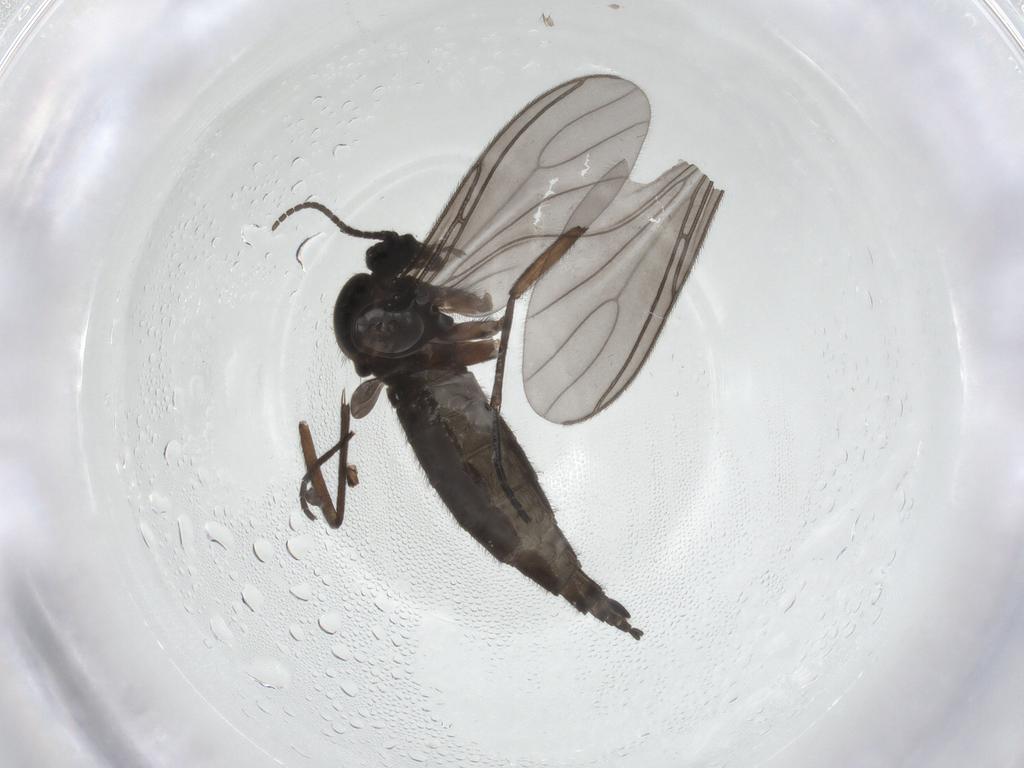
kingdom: Animalia
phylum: Arthropoda
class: Insecta
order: Diptera
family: Sciaridae
